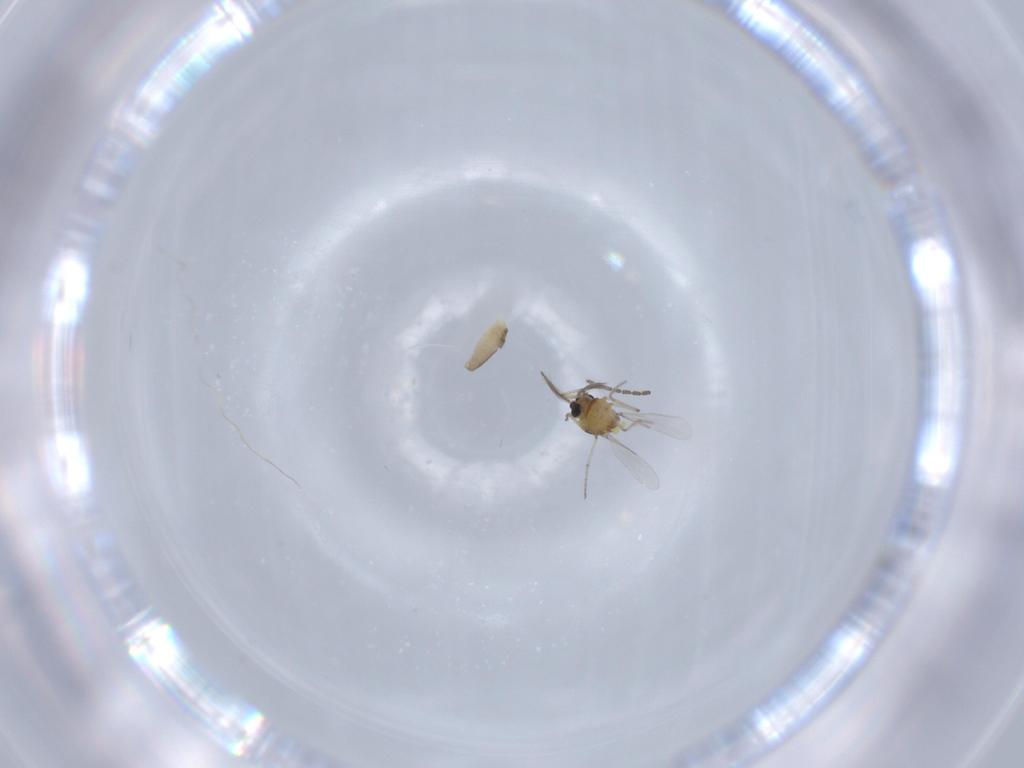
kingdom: Animalia
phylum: Arthropoda
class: Insecta
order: Diptera
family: Ceratopogonidae
